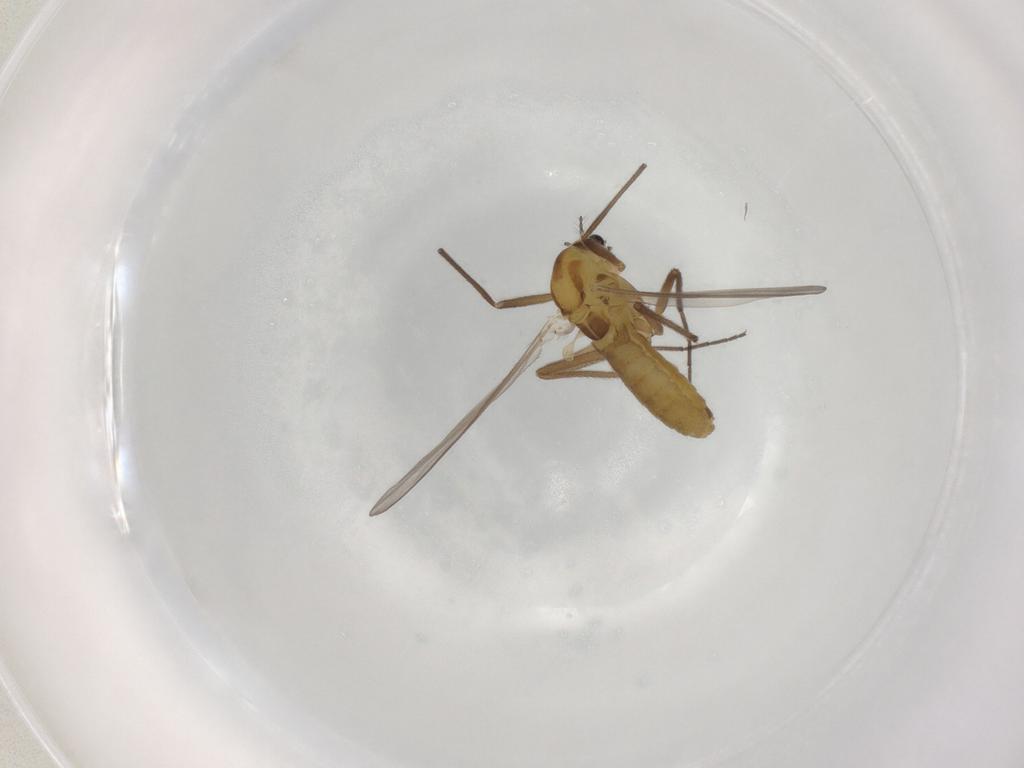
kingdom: Animalia
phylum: Arthropoda
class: Insecta
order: Diptera
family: Chironomidae
